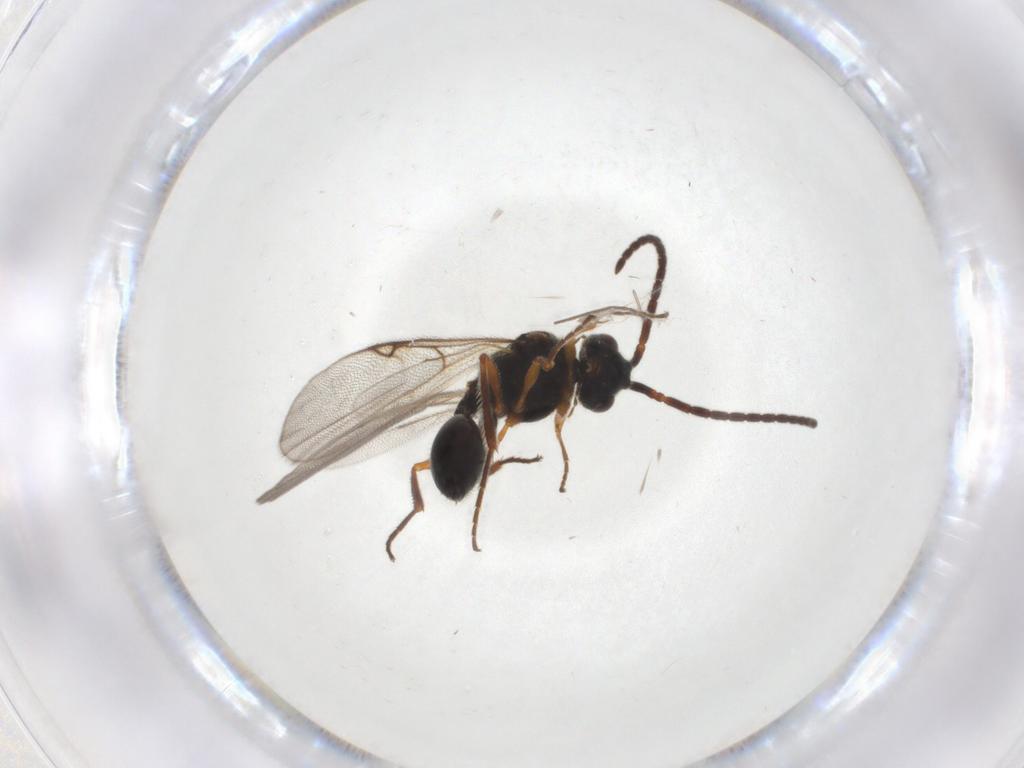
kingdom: Animalia
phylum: Arthropoda
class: Insecta
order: Hymenoptera
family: Diapriidae
